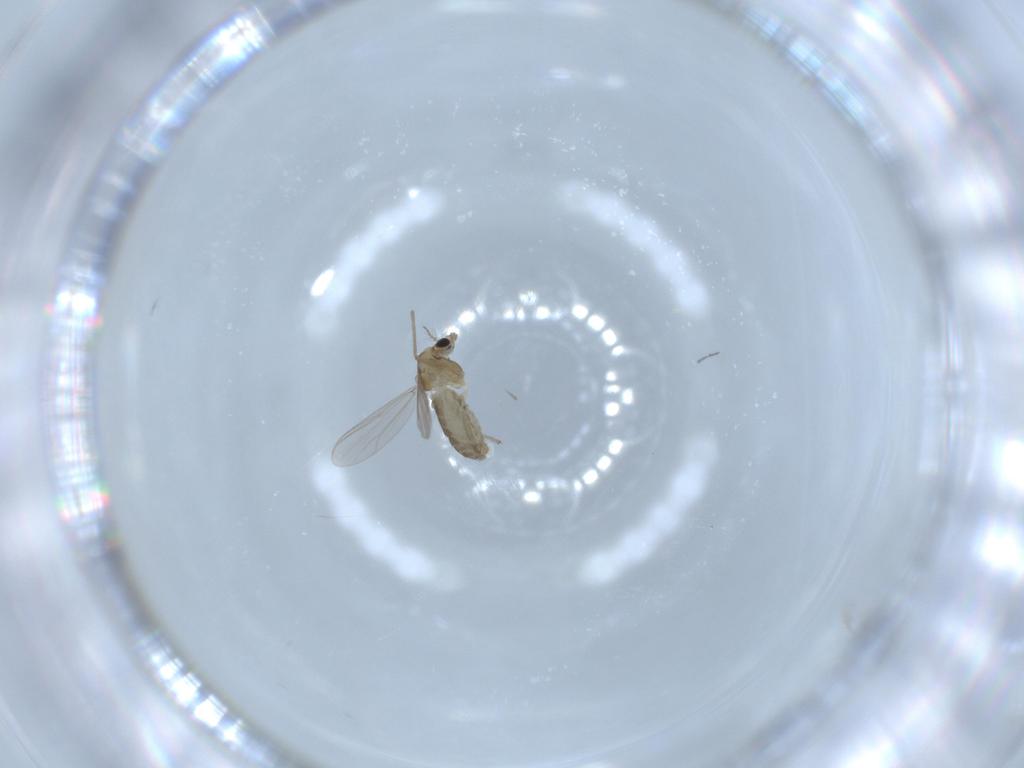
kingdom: Animalia
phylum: Arthropoda
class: Insecta
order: Diptera
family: Chironomidae
